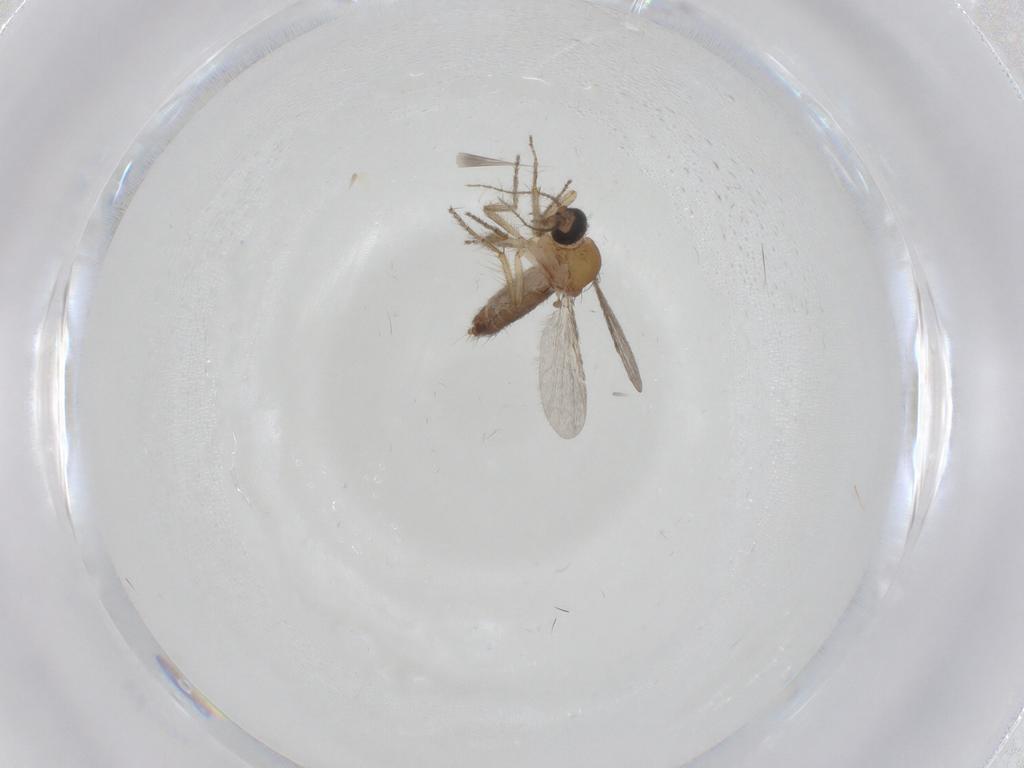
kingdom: Animalia
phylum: Arthropoda
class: Insecta
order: Diptera
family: Ceratopogonidae
